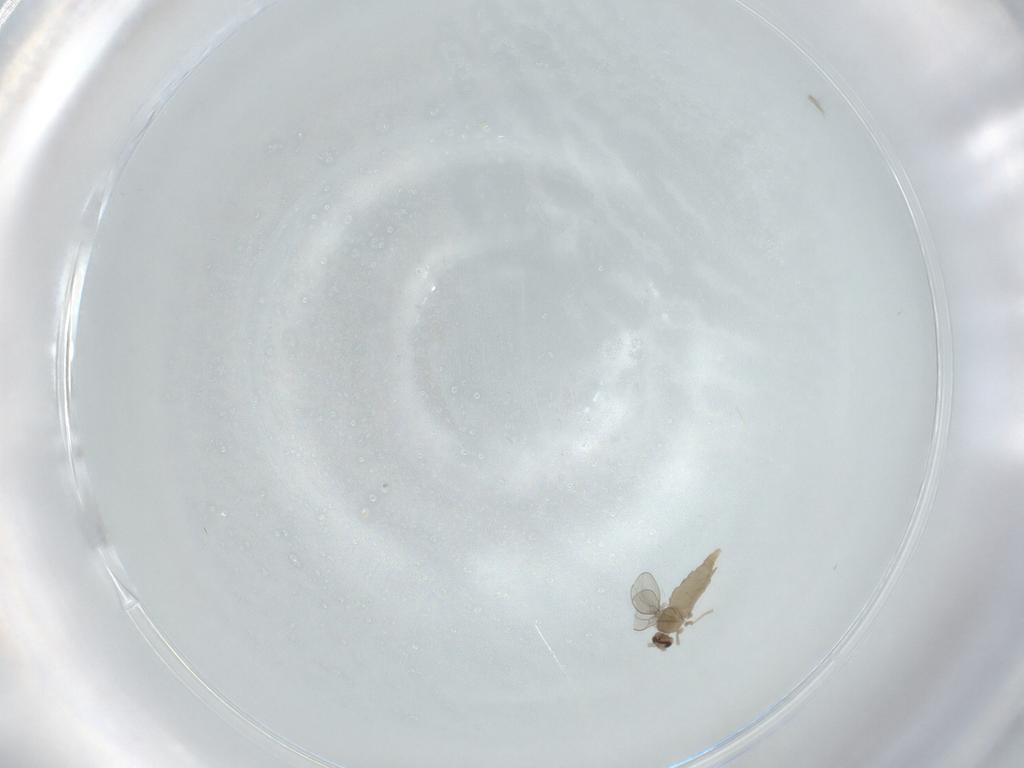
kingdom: Animalia
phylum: Arthropoda
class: Insecta
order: Diptera
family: Cecidomyiidae
